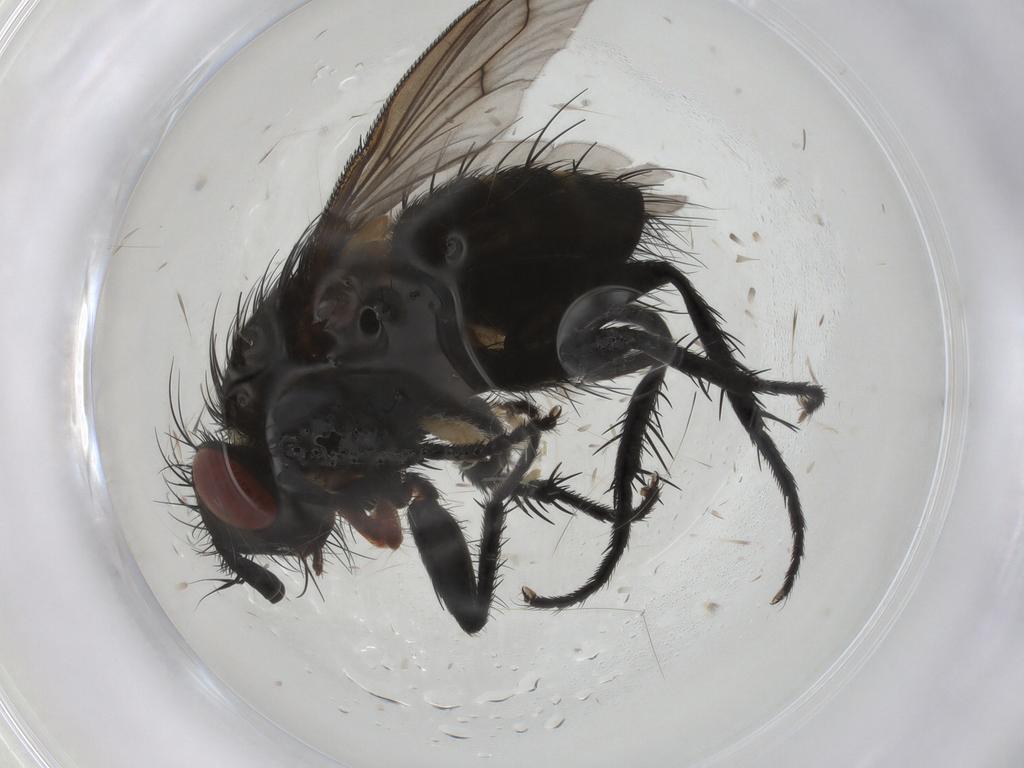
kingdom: Animalia
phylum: Arthropoda
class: Insecta
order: Diptera
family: Tachinidae
